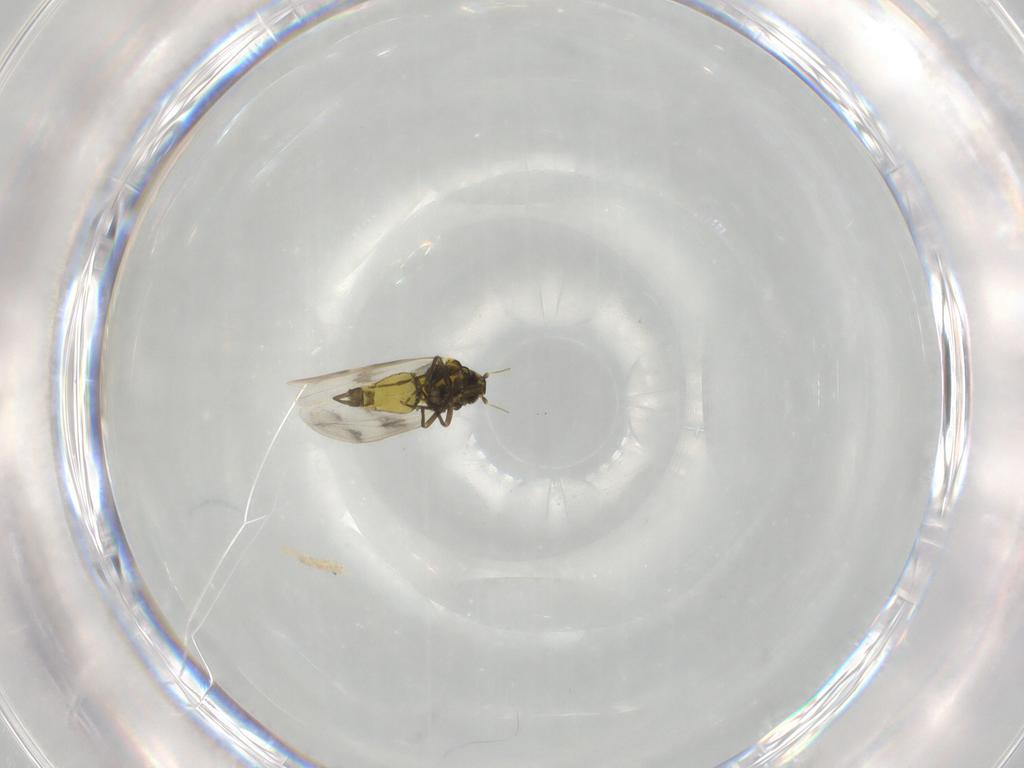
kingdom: Animalia
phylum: Arthropoda
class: Insecta
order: Hemiptera
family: Aleyrodidae
